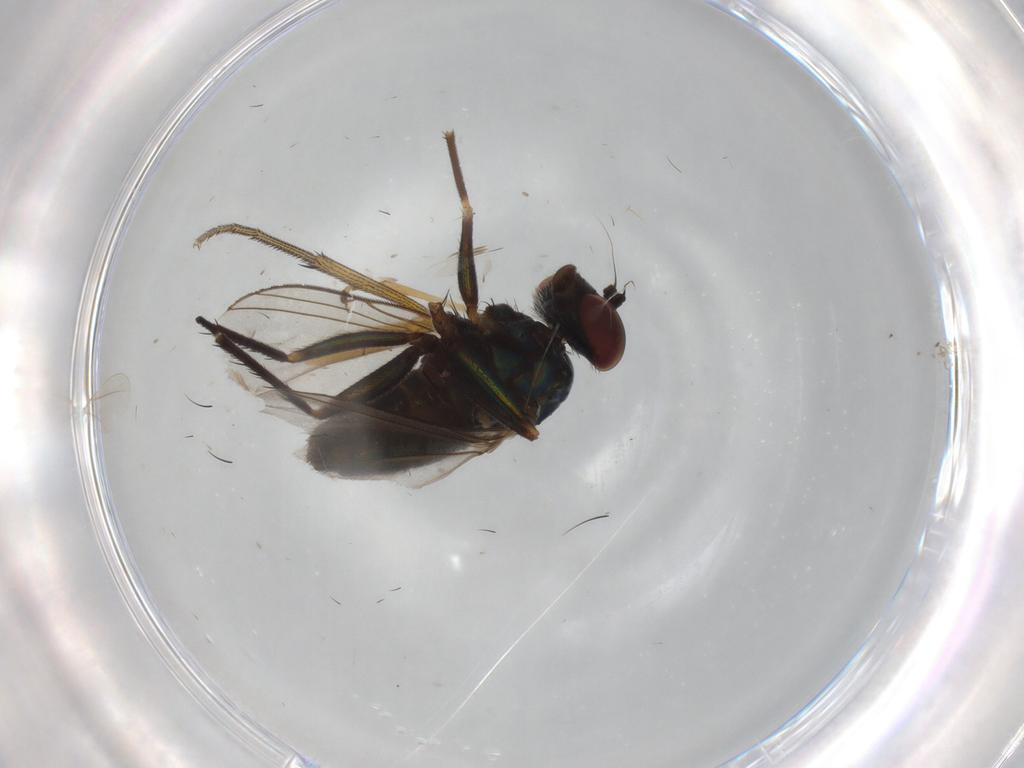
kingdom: Animalia
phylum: Arthropoda
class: Insecta
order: Diptera
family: Dolichopodidae
